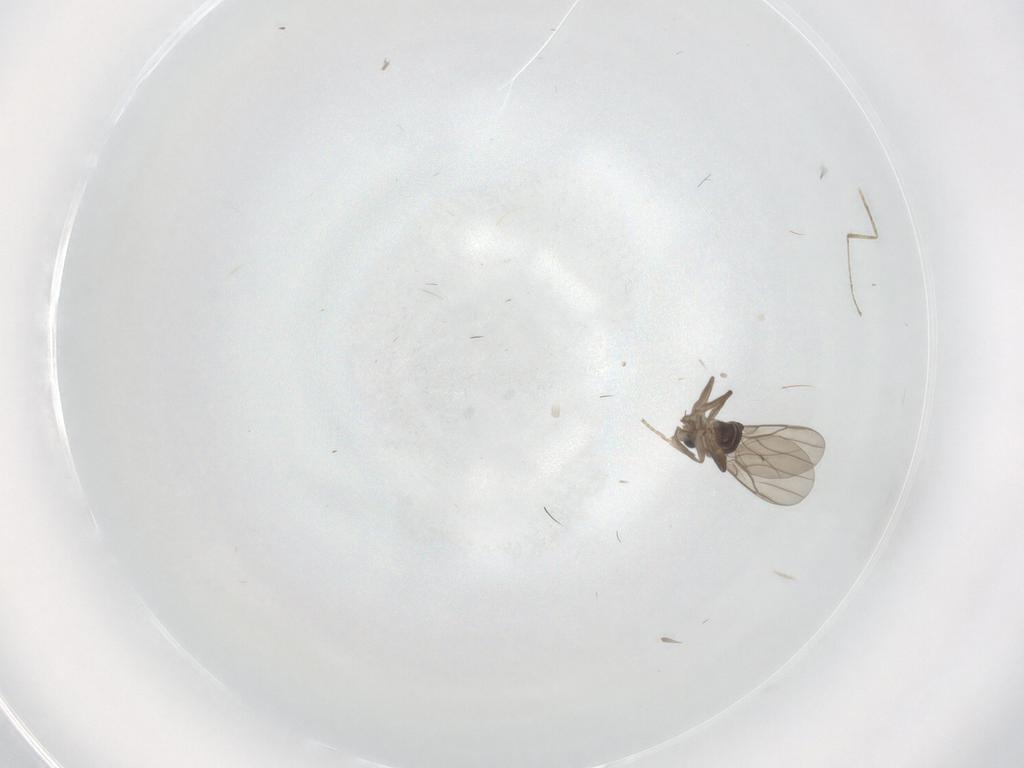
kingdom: Animalia
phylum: Arthropoda
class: Insecta
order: Diptera
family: Phoridae
